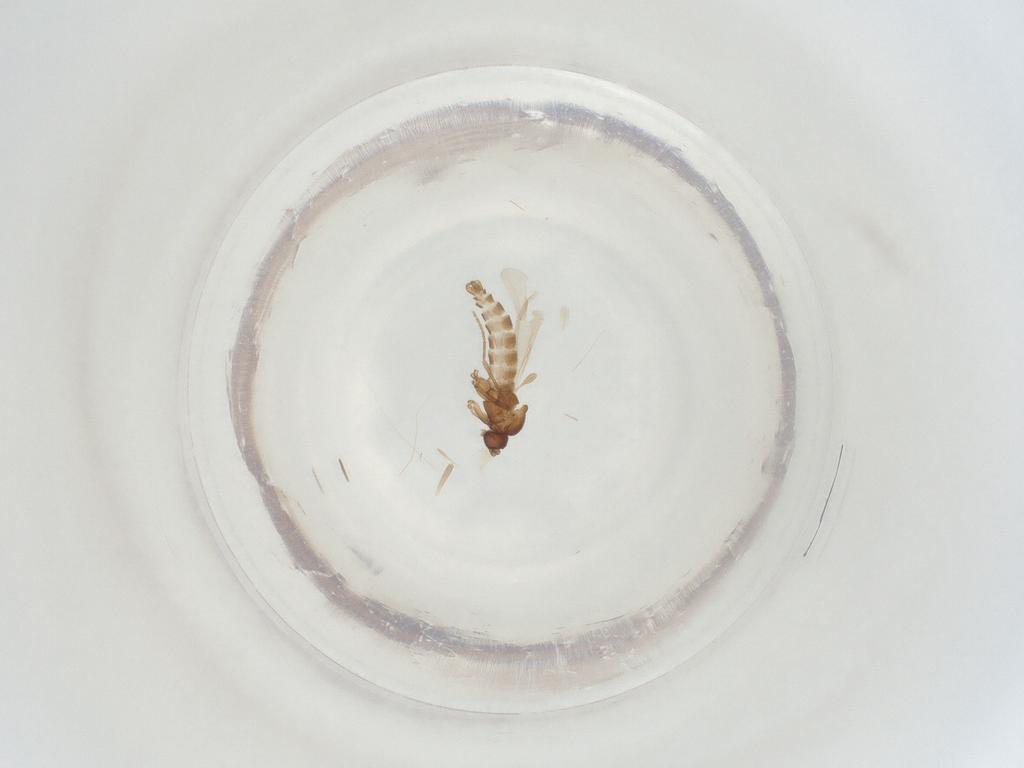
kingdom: Animalia
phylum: Arthropoda
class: Insecta
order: Diptera
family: Sciaridae
